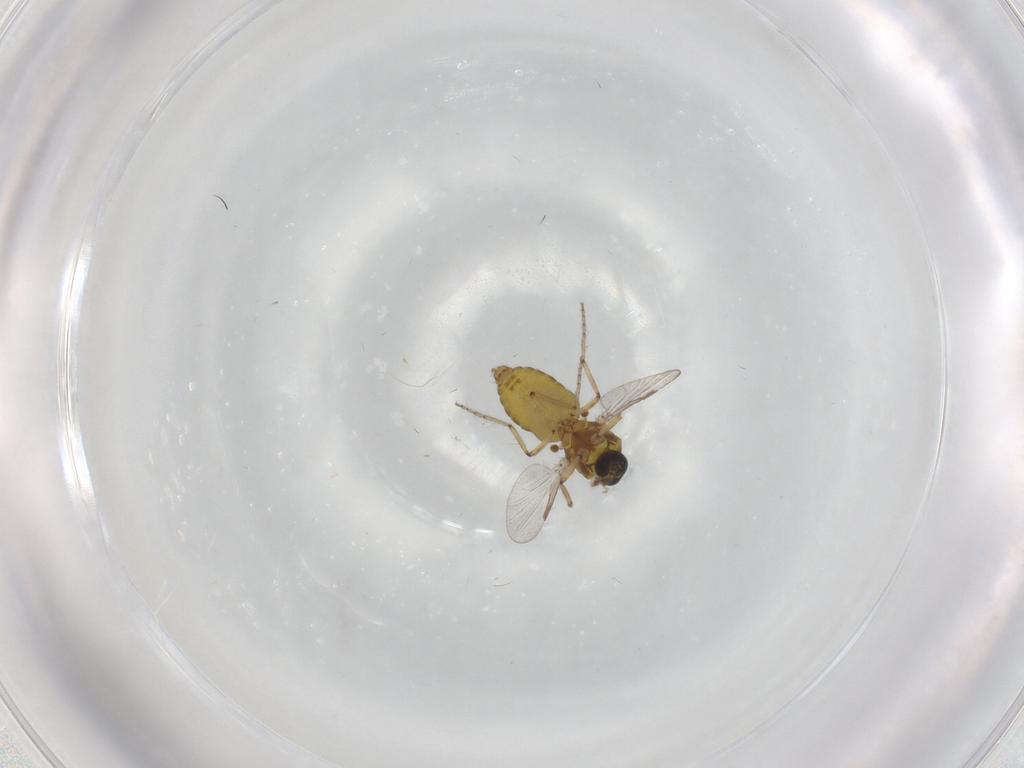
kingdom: Animalia
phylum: Arthropoda
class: Insecta
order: Diptera
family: Ceratopogonidae
